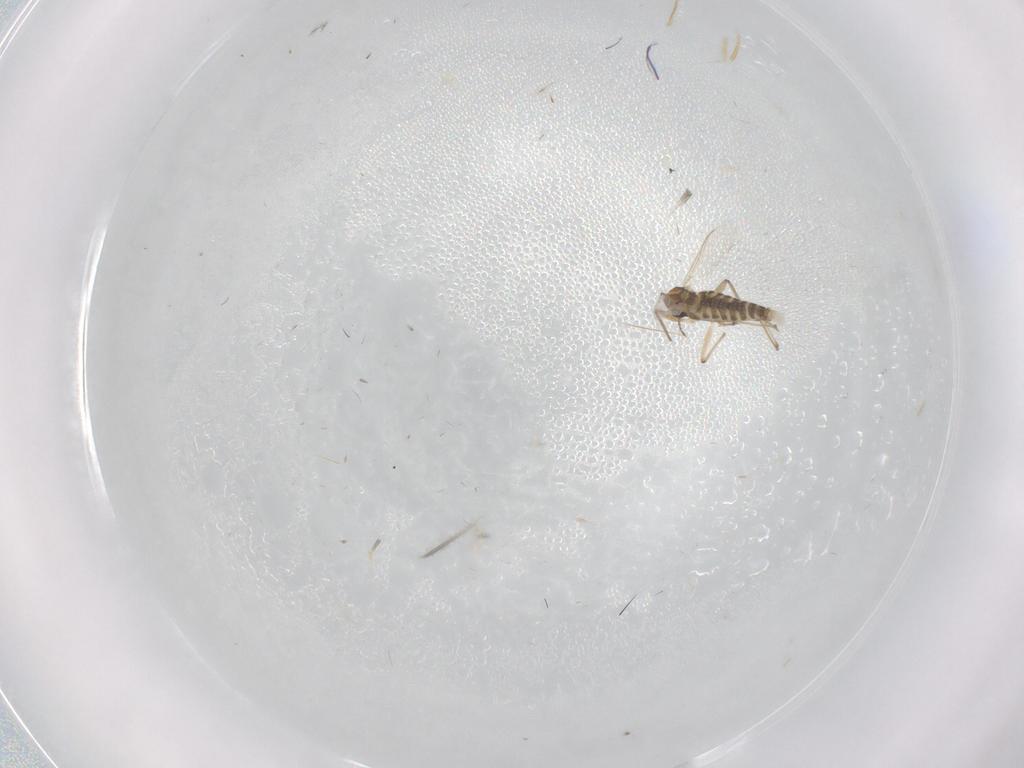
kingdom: Animalia
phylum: Arthropoda
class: Insecta
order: Diptera
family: Chironomidae
